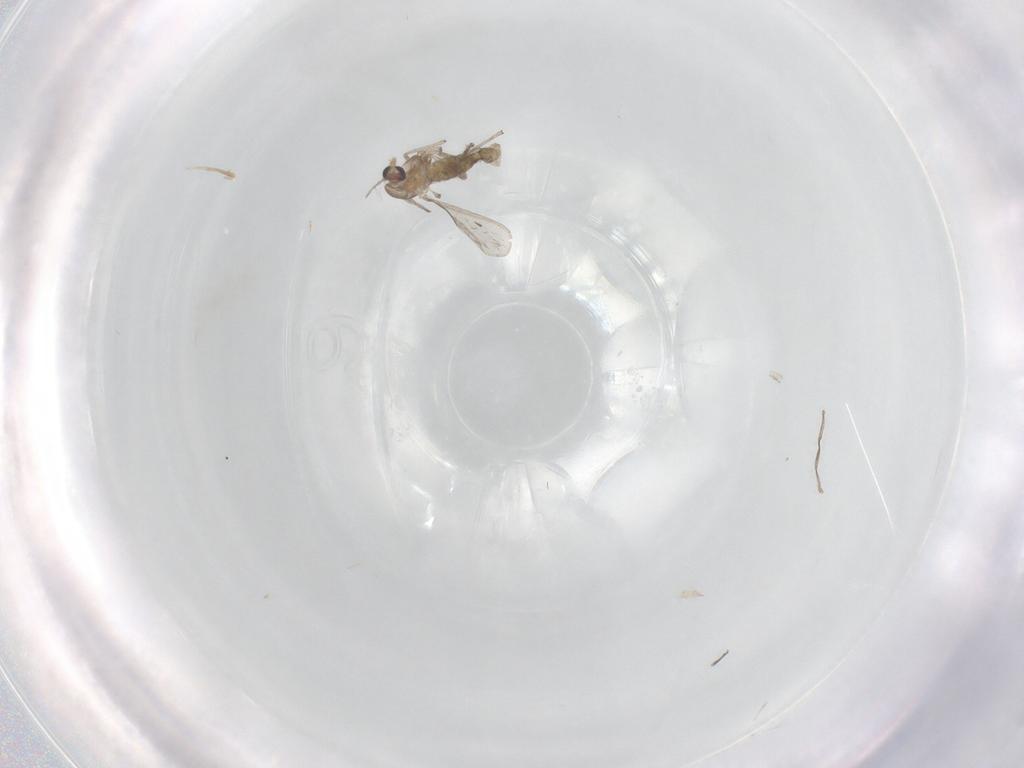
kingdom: Animalia
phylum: Arthropoda
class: Insecta
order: Diptera
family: Chironomidae
